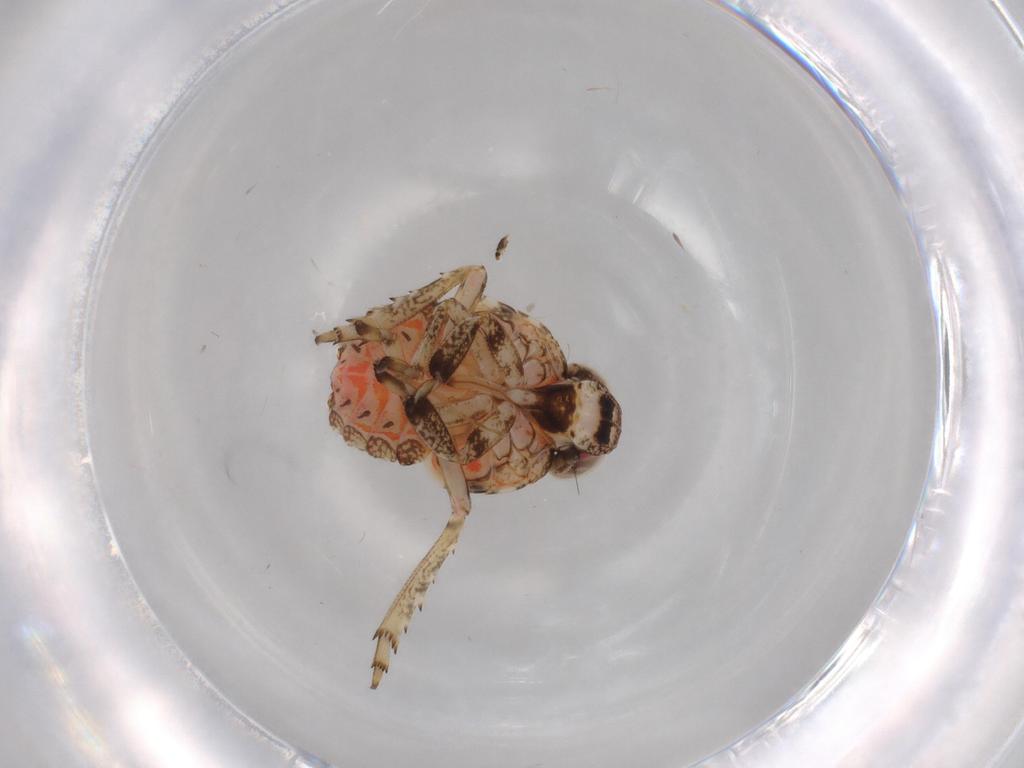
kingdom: Animalia
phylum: Arthropoda
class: Insecta
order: Hemiptera
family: Issidae
